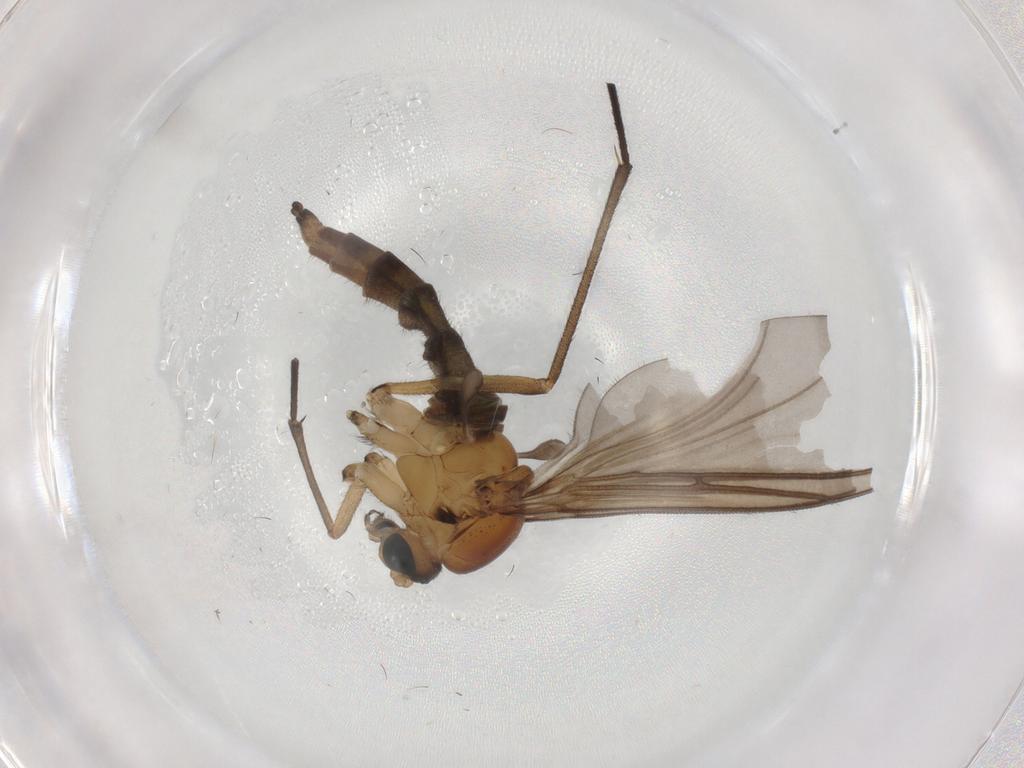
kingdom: Animalia
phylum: Arthropoda
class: Insecta
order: Diptera
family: Sciaridae
